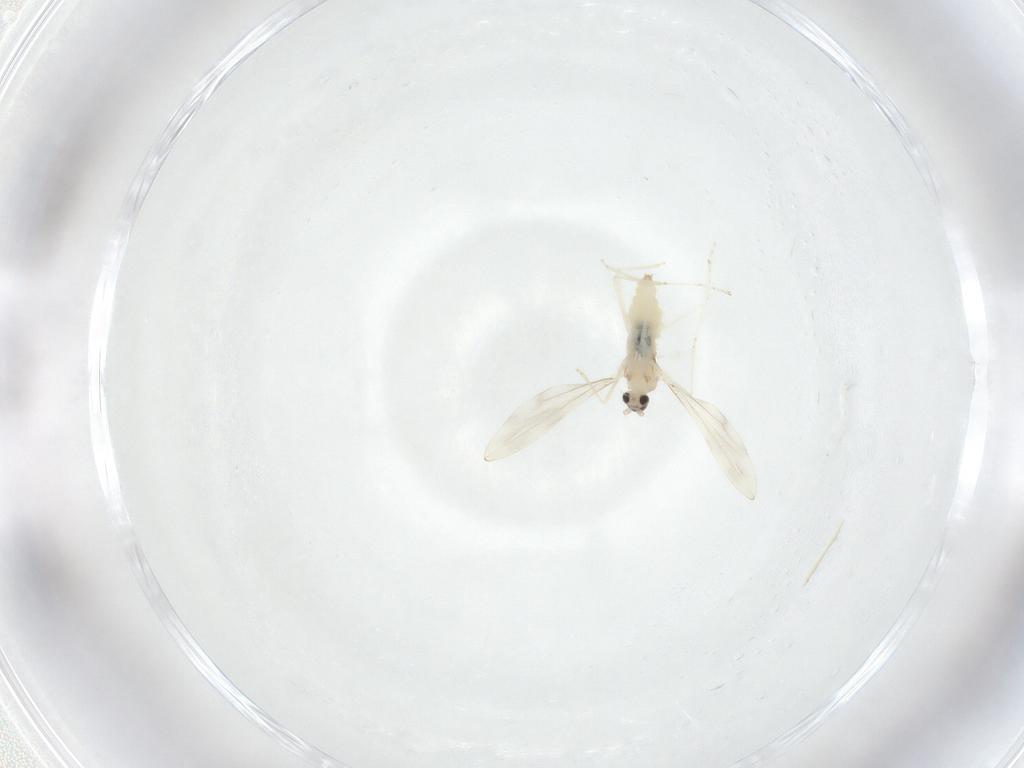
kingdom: Animalia
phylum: Arthropoda
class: Insecta
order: Diptera
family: Cecidomyiidae
